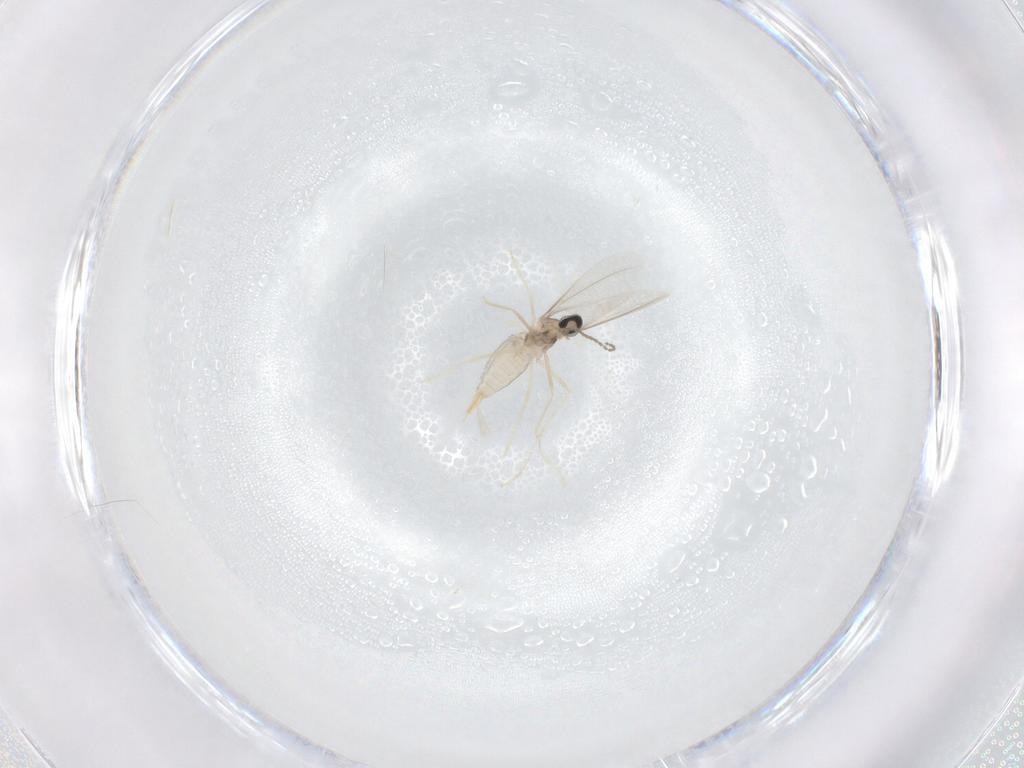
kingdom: Animalia
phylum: Arthropoda
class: Insecta
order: Diptera
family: Cecidomyiidae
